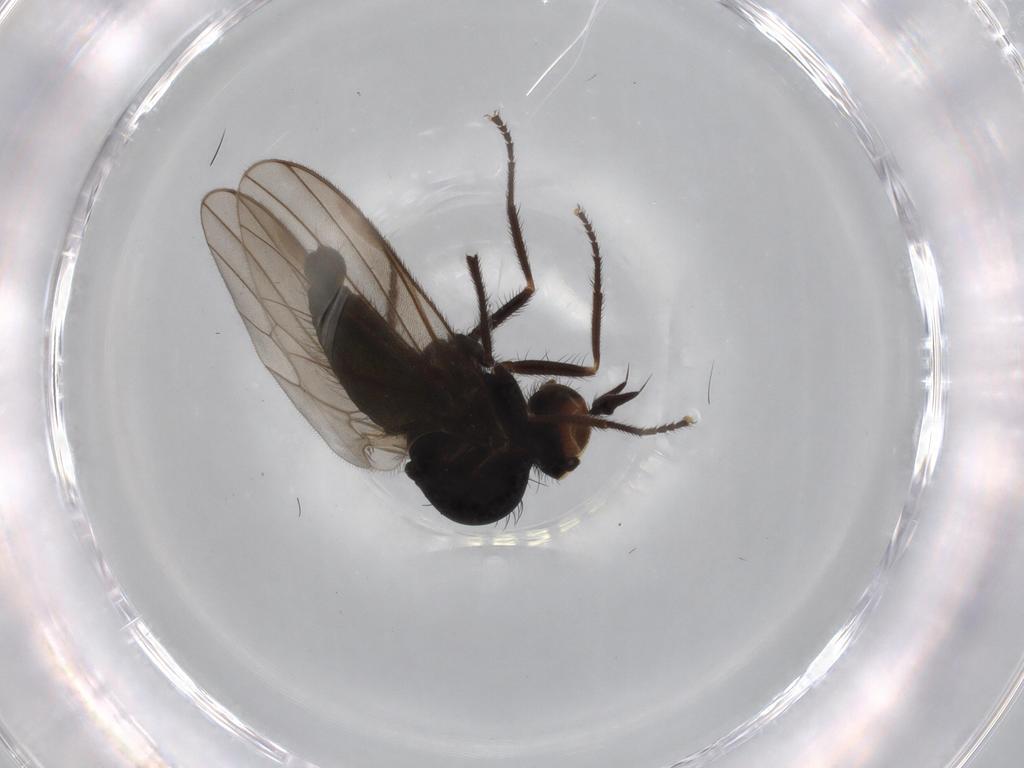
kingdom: Animalia
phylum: Arthropoda
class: Insecta
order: Diptera
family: Dolichopodidae
